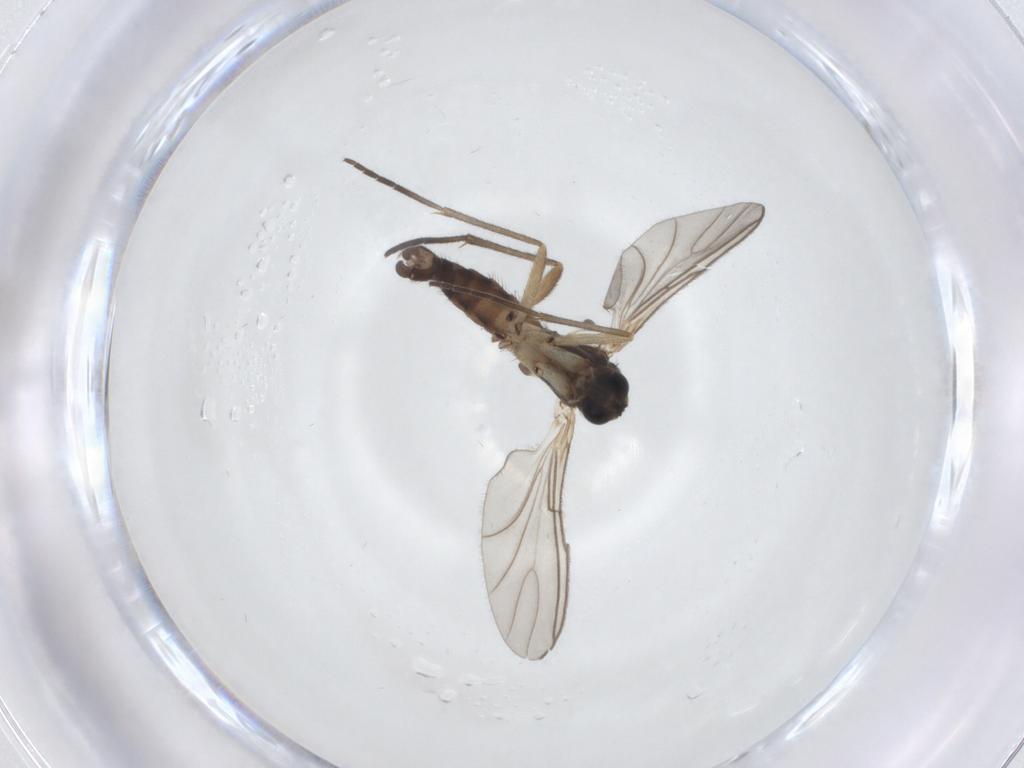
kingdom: Animalia
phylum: Arthropoda
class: Insecta
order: Diptera
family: Sciaridae
